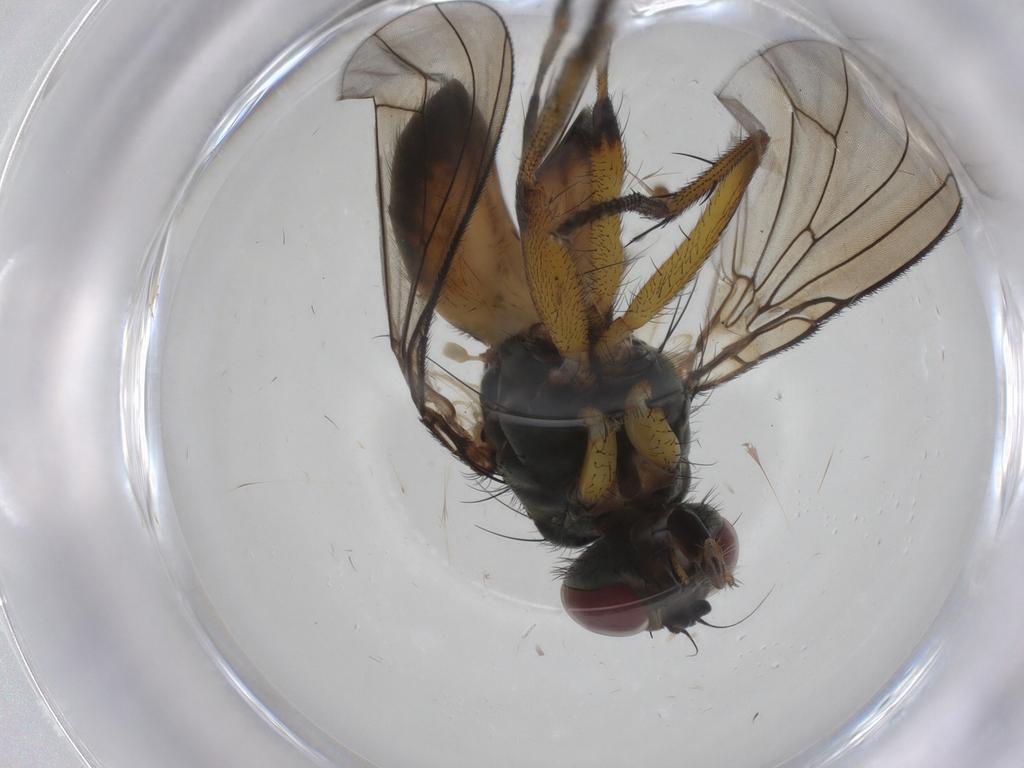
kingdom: Animalia
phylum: Arthropoda
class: Insecta
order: Diptera
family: Muscidae
